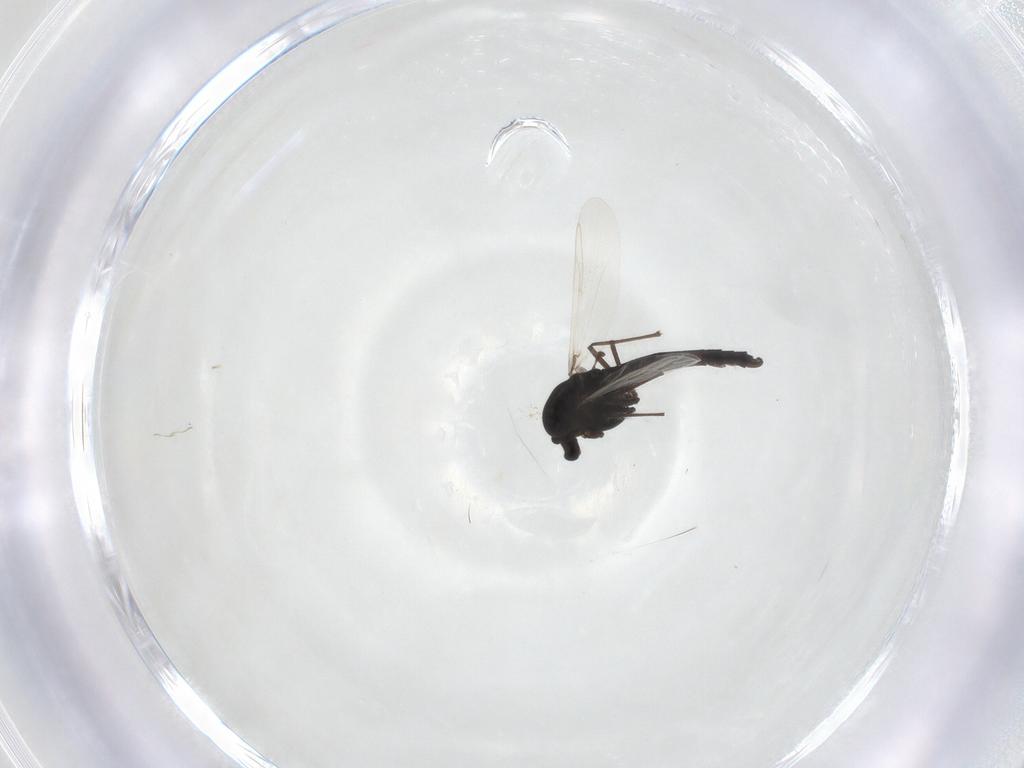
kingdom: Animalia
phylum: Arthropoda
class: Insecta
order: Diptera
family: Chironomidae
